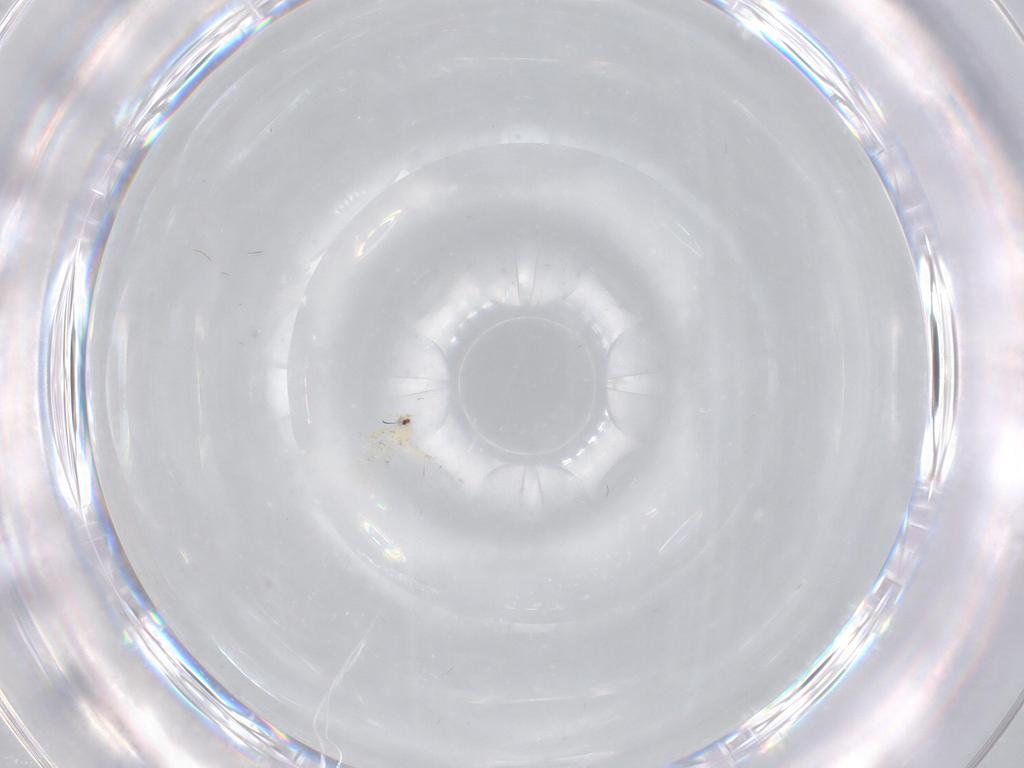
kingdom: Animalia
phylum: Arthropoda
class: Insecta
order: Hemiptera
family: Aleyrodidae
